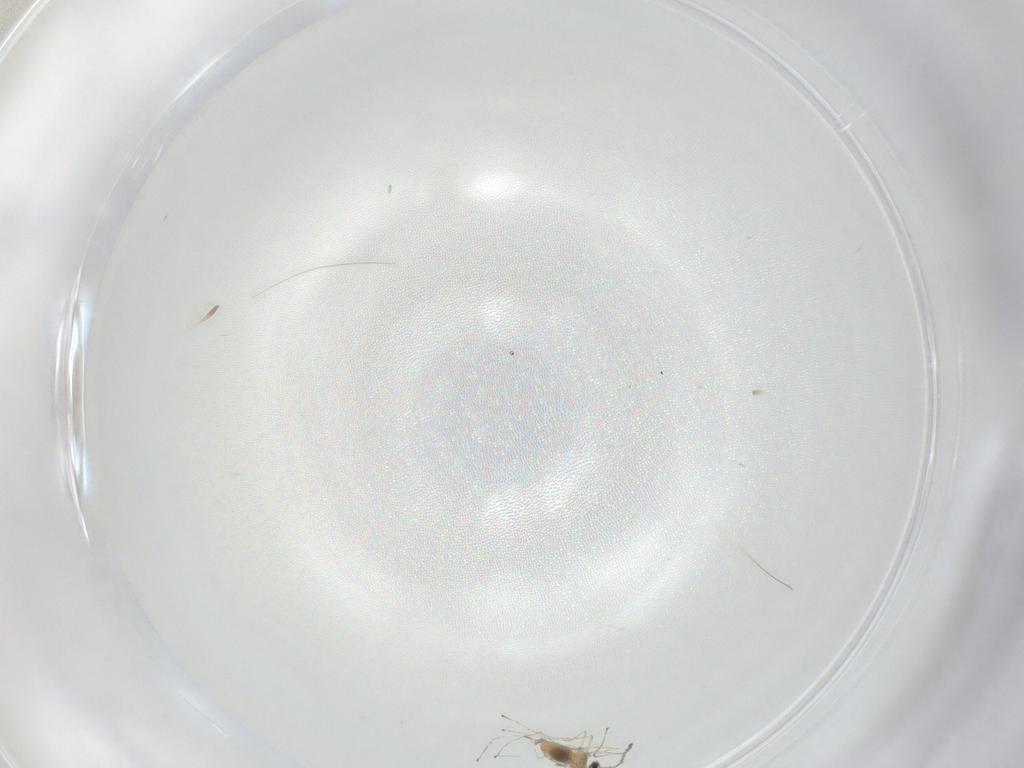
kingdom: Animalia
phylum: Arthropoda
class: Insecta
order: Diptera
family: Cecidomyiidae
